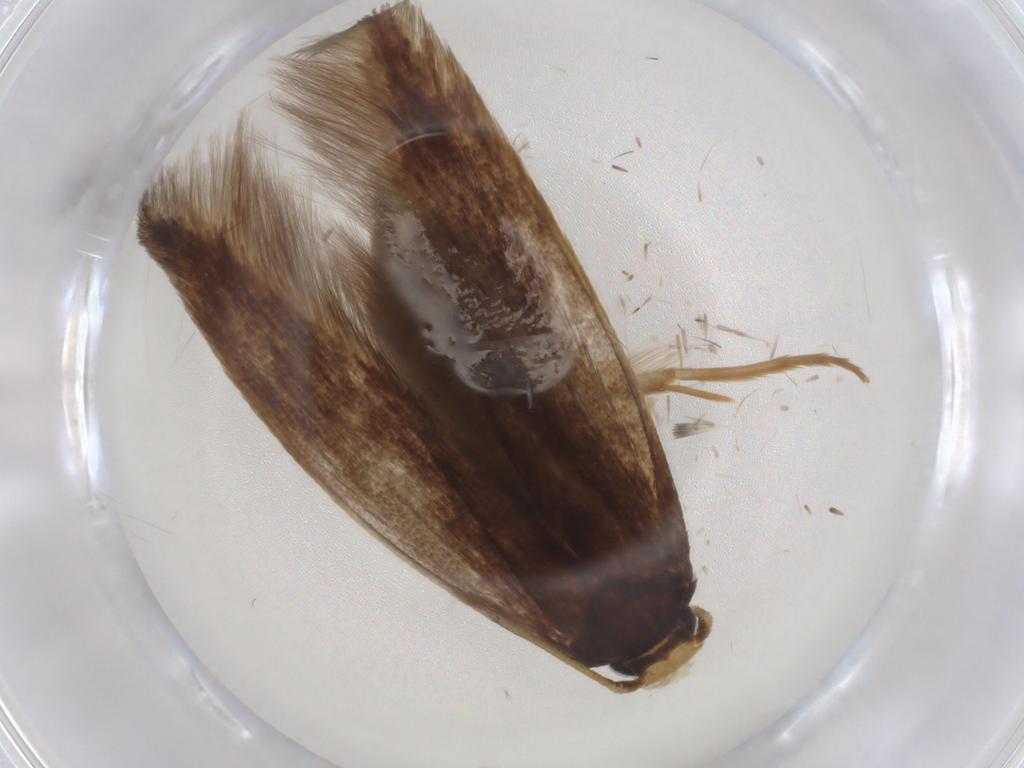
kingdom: Animalia
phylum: Arthropoda
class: Insecta
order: Lepidoptera
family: Tineidae
